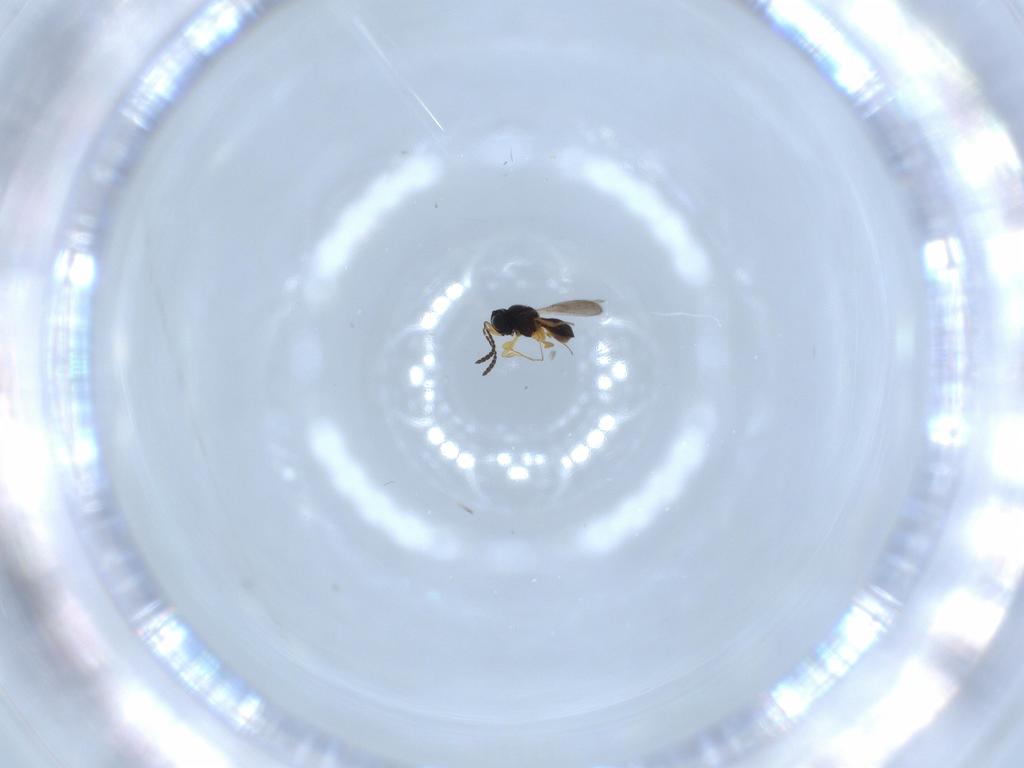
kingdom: Animalia
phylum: Arthropoda
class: Insecta
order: Hymenoptera
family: Scelionidae
